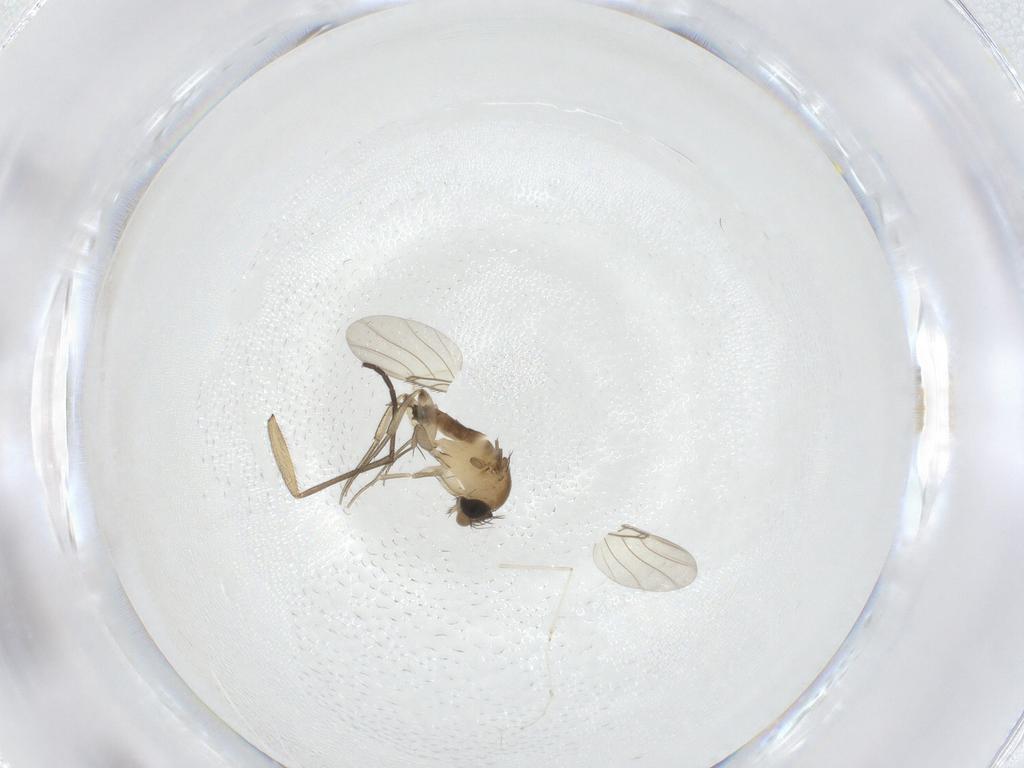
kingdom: Animalia
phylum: Arthropoda
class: Insecta
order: Diptera
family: Phoridae
